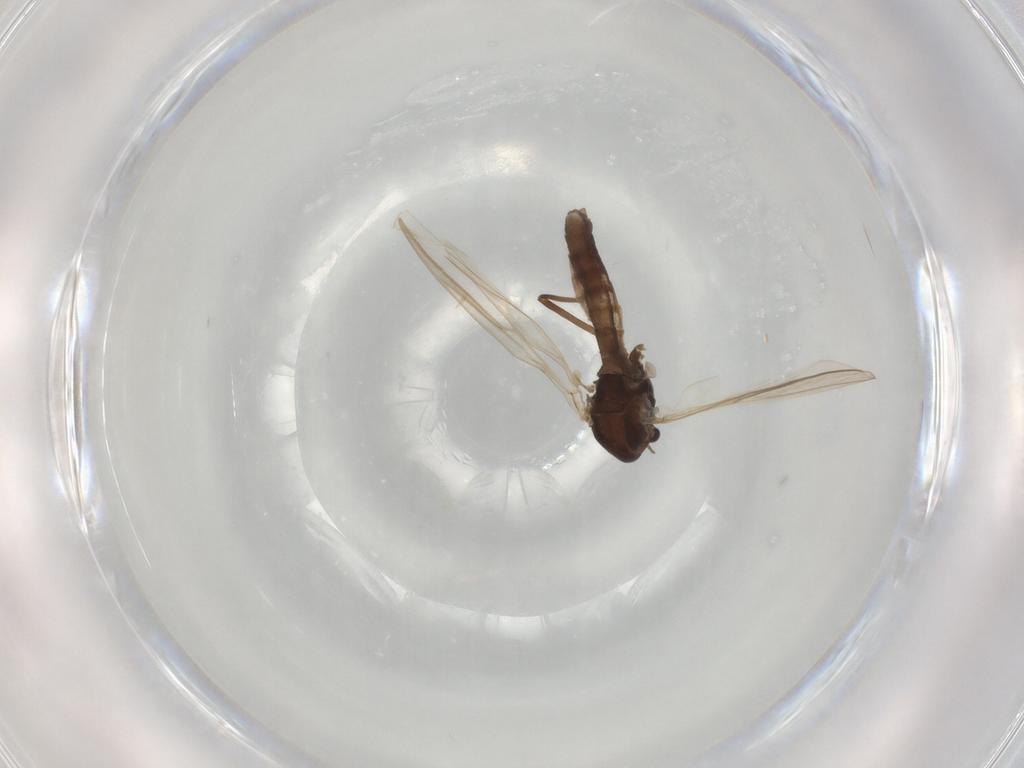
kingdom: Animalia
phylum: Arthropoda
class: Insecta
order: Diptera
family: Chironomidae
